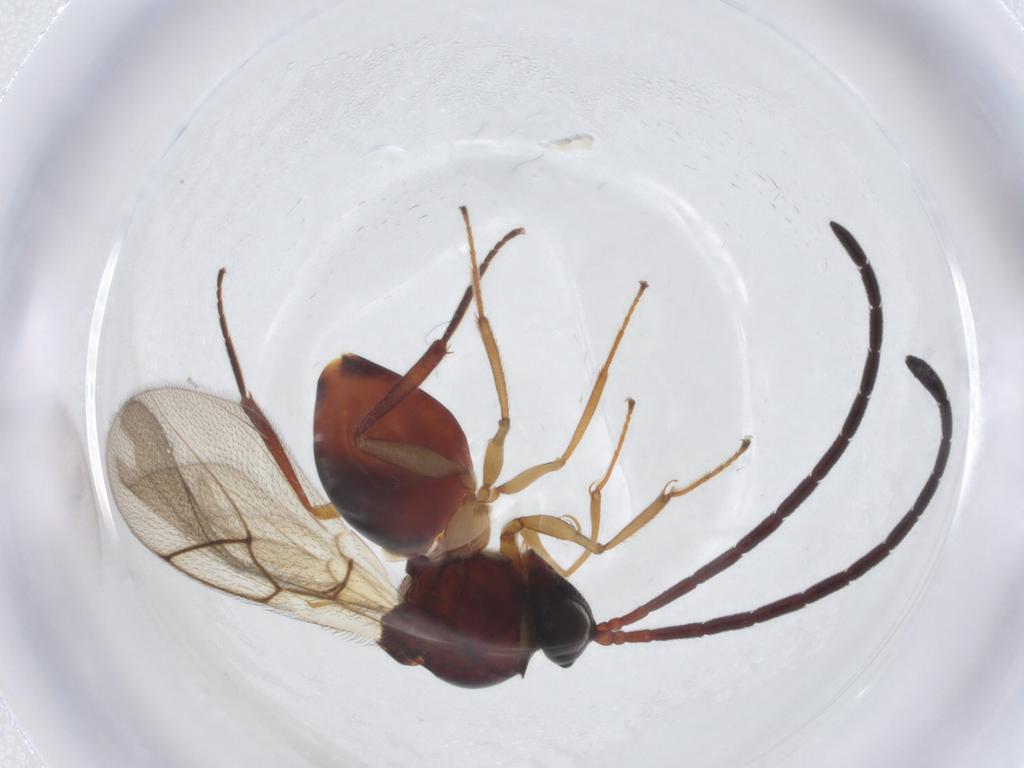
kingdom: Animalia
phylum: Arthropoda
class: Insecta
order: Hymenoptera
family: Figitidae
